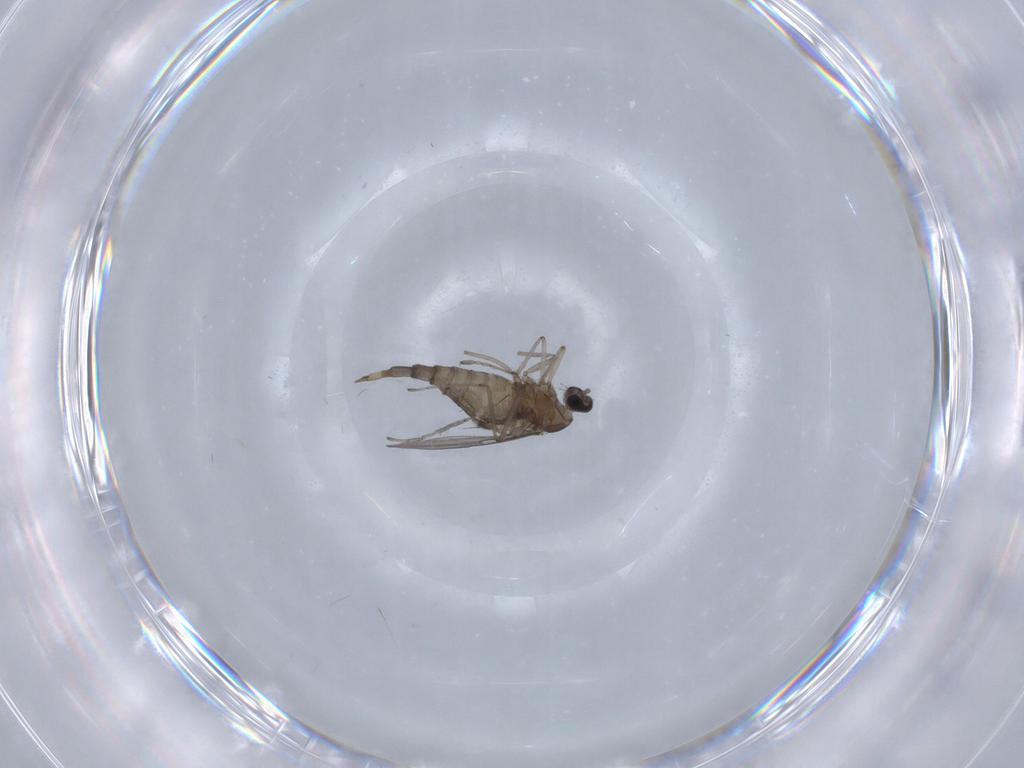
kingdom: Animalia
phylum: Arthropoda
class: Insecta
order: Diptera
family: Cecidomyiidae
